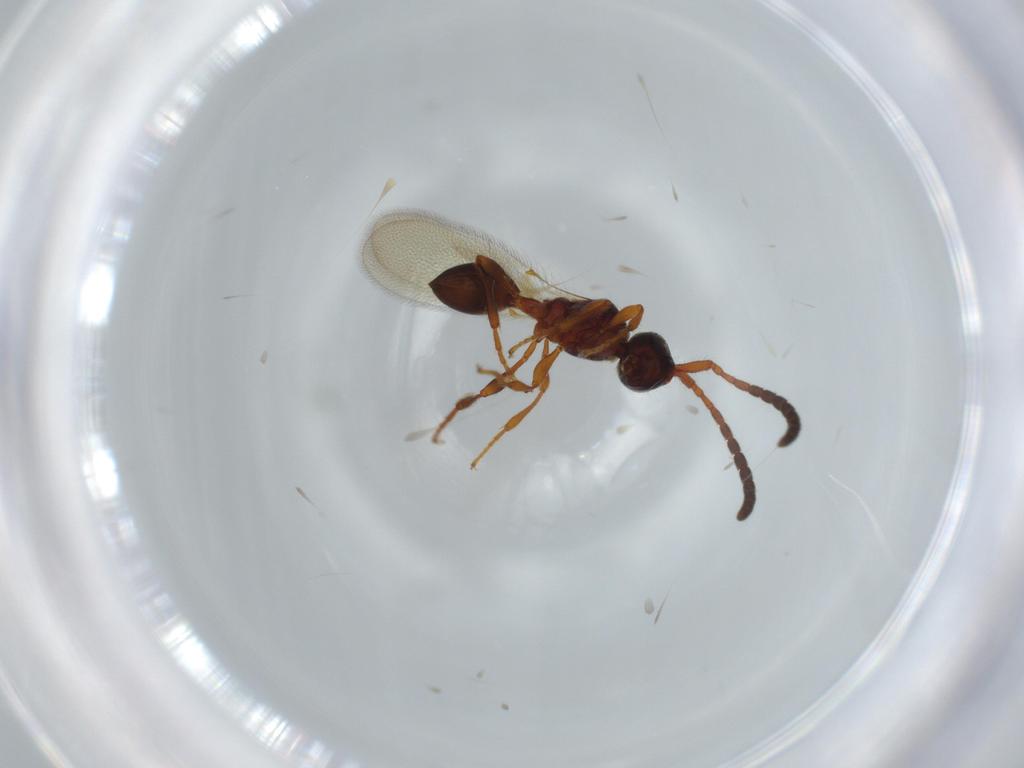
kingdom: Animalia
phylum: Arthropoda
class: Insecta
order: Hymenoptera
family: Diapriidae
